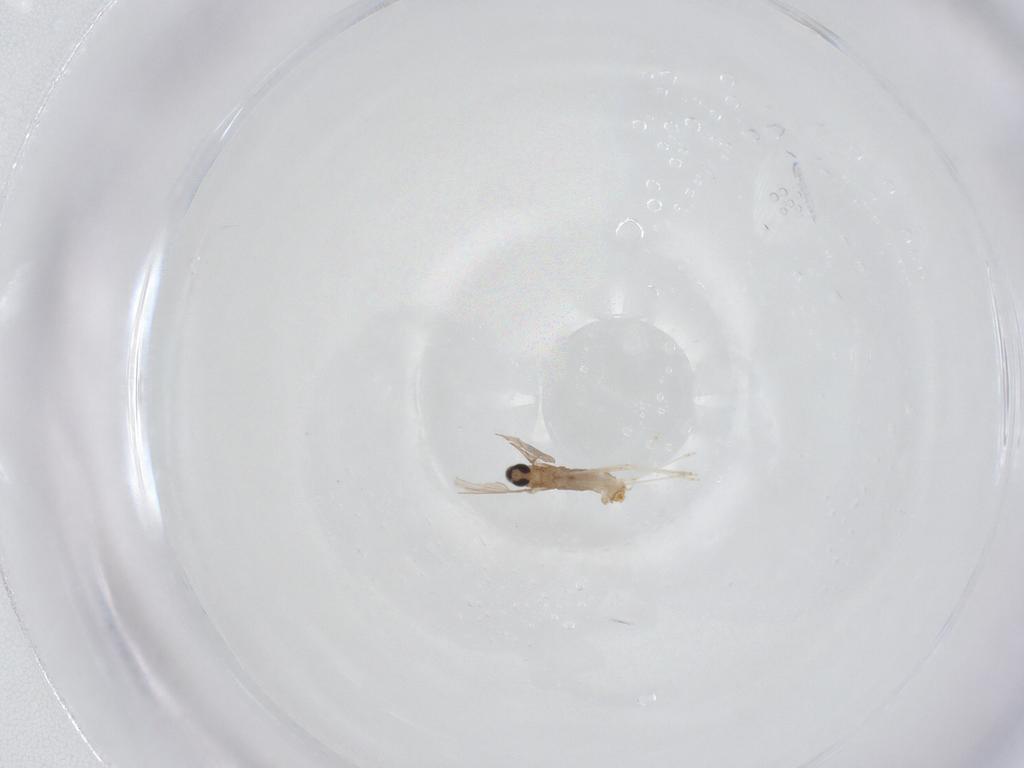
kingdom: Animalia
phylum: Arthropoda
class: Insecta
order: Diptera
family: Cecidomyiidae
